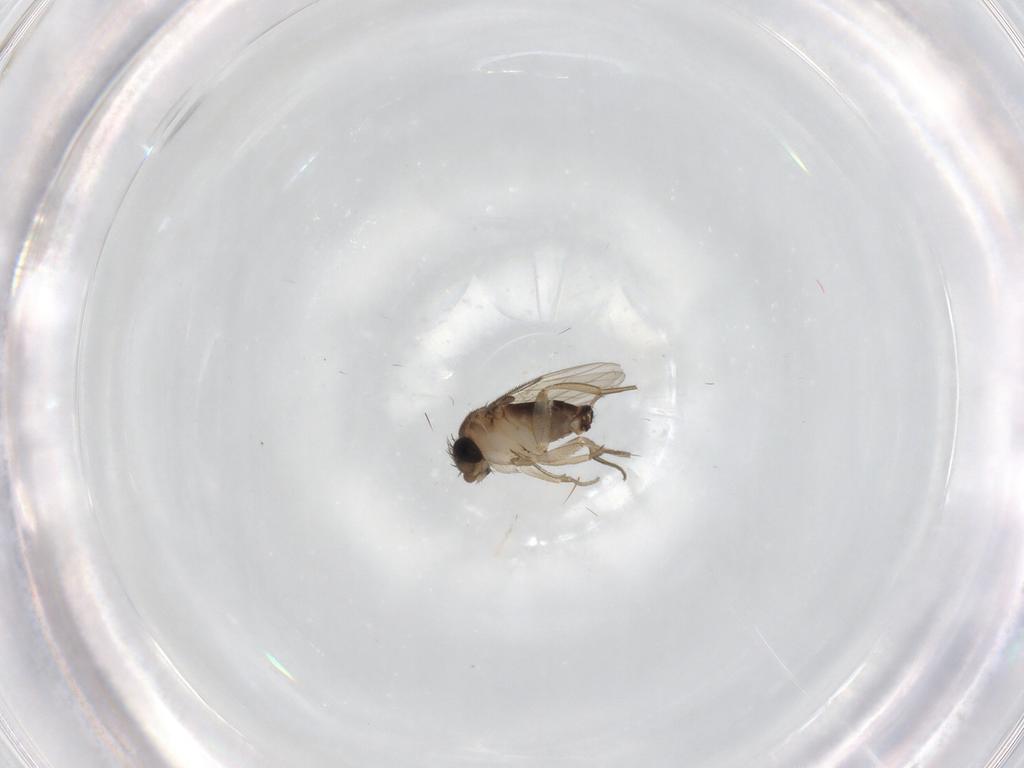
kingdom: Animalia
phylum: Arthropoda
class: Insecta
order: Diptera
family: Cecidomyiidae
